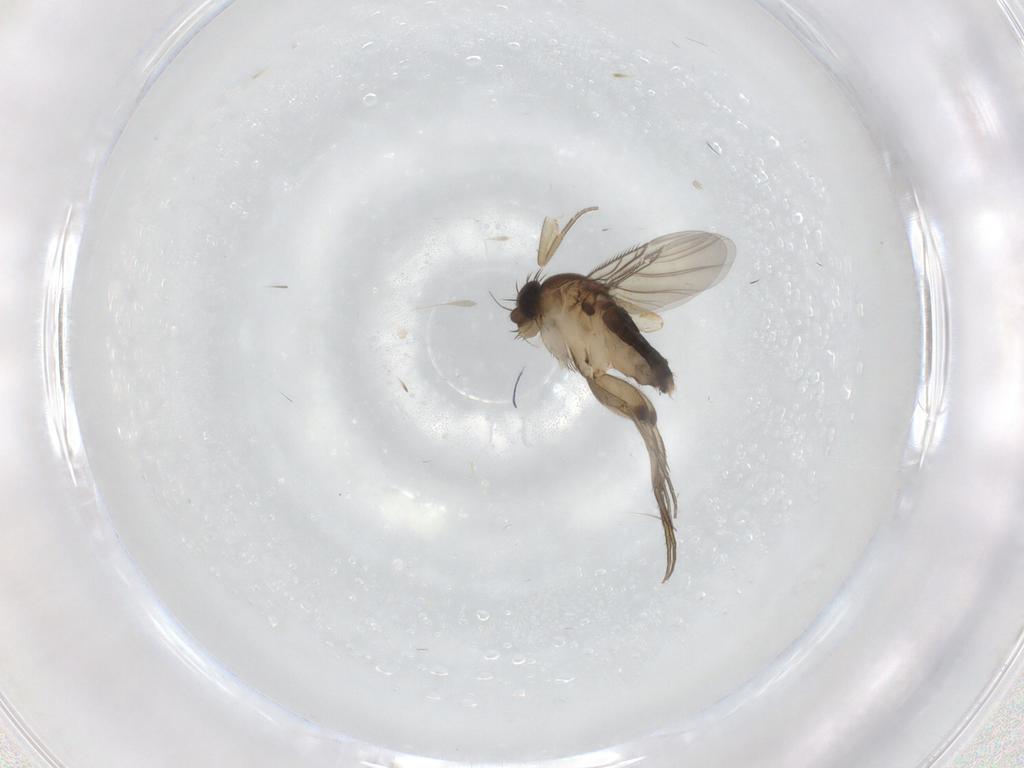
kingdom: Animalia
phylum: Arthropoda
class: Insecta
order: Diptera
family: Phoridae
